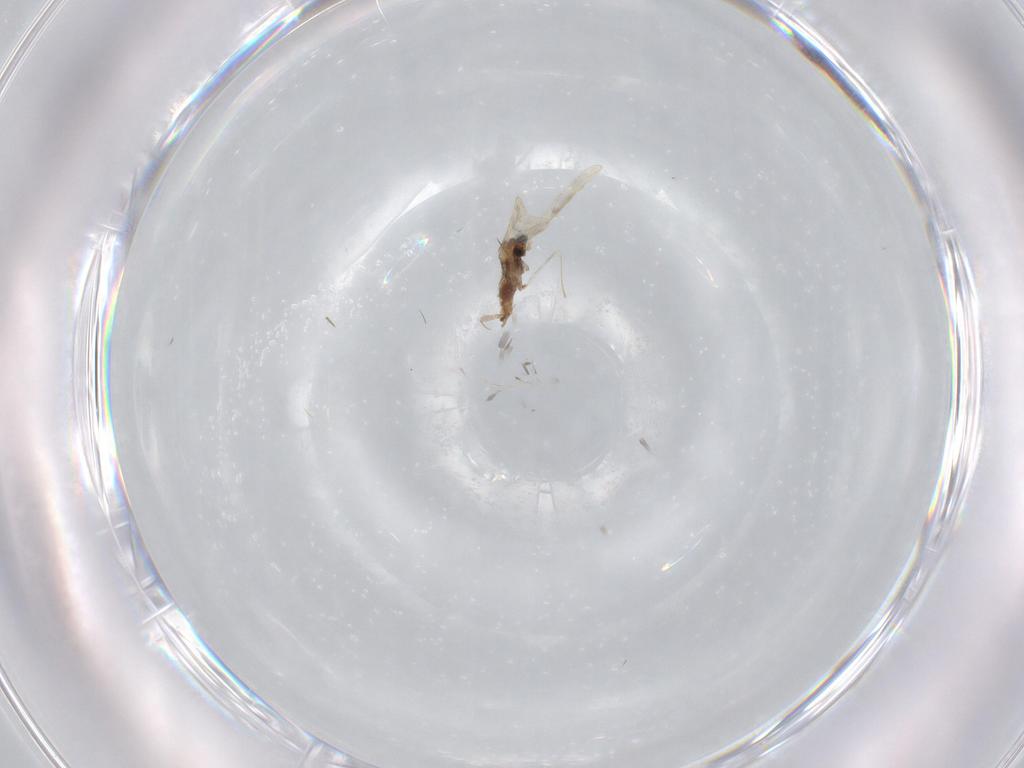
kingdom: Animalia
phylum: Arthropoda
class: Insecta
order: Diptera
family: Cecidomyiidae
